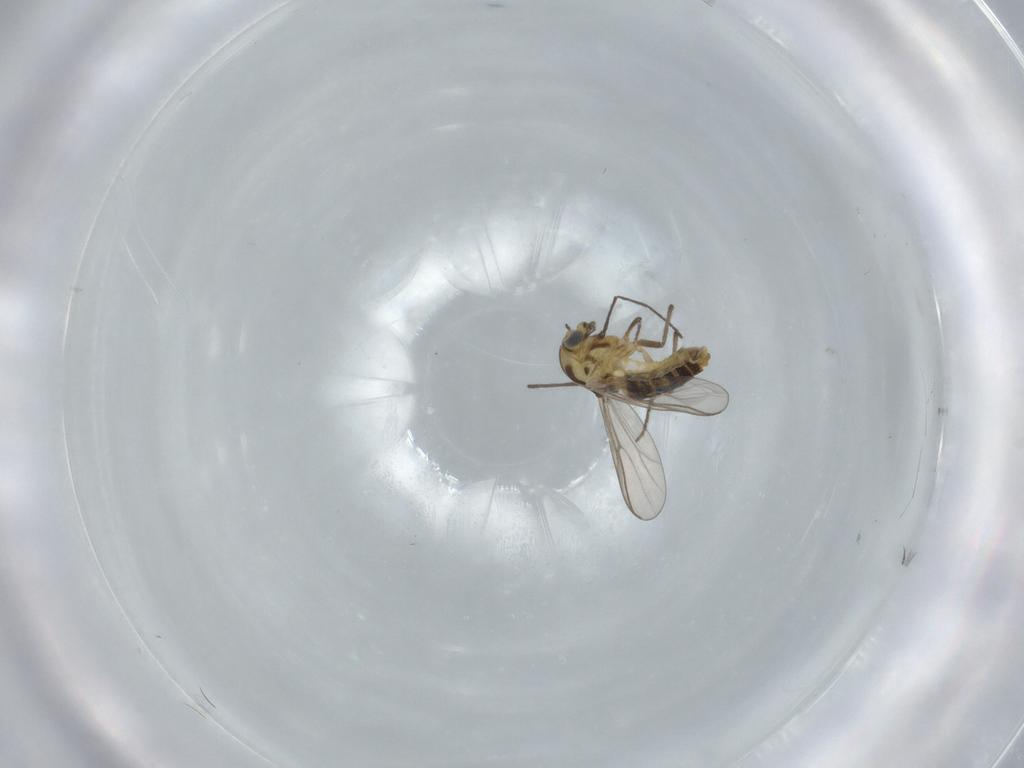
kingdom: Animalia
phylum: Arthropoda
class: Insecta
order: Diptera
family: Chironomidae
